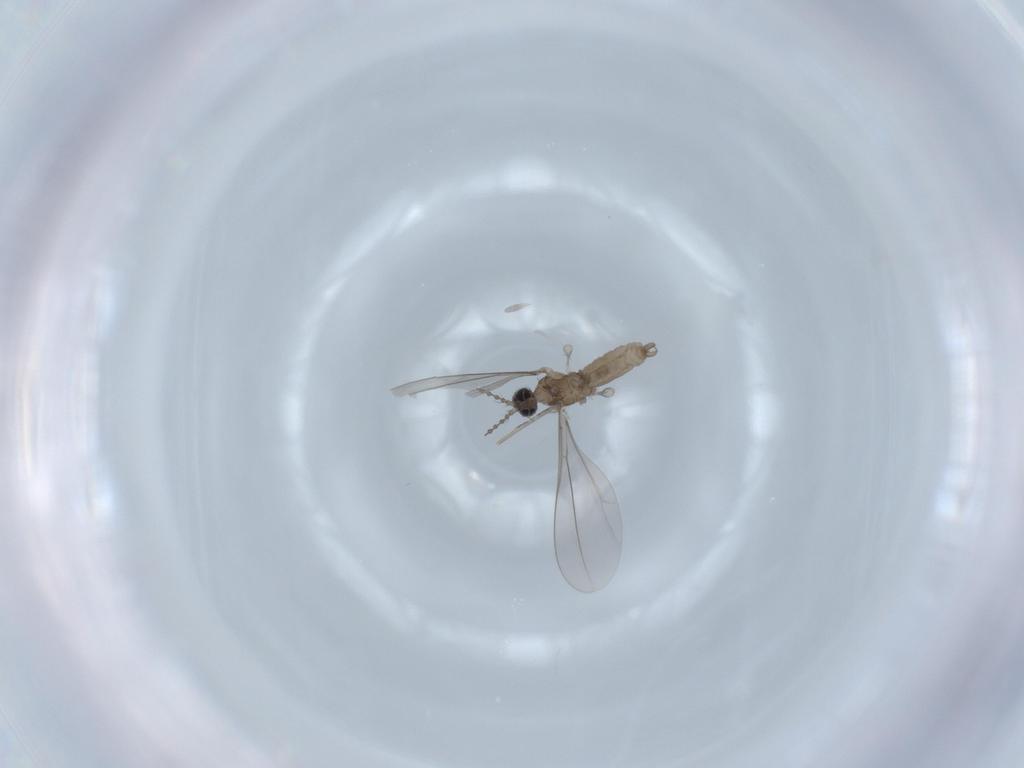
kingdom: Animalia
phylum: Arthropoda
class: Insecta
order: Diptera
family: Cecidomyiidae
